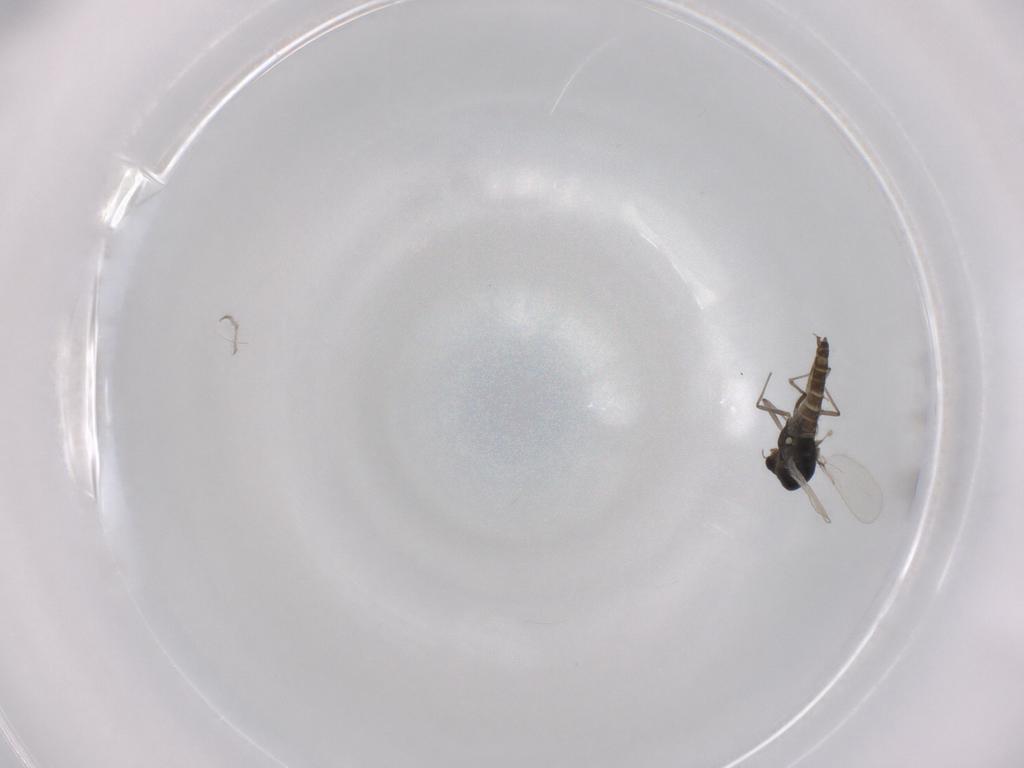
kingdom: Animalia
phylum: Arthropoda
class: Insecta
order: Diptera
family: Chironomidae
